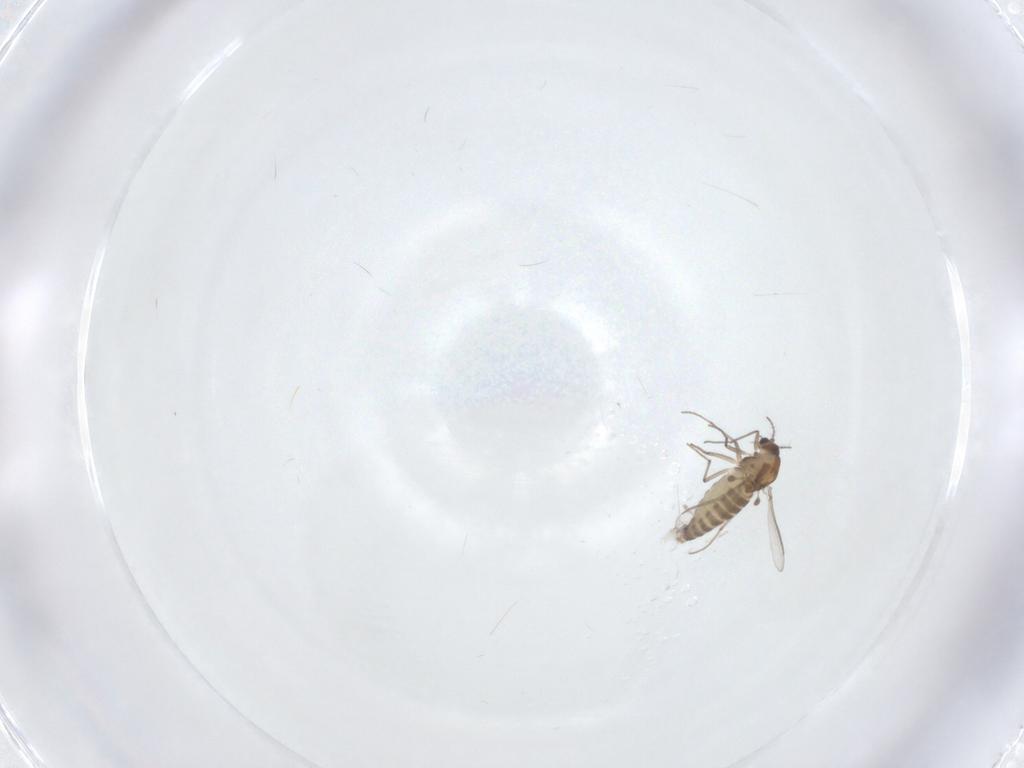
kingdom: Animalia
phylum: Arthropoda
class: Insecta
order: Diptera
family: Chironomidae
